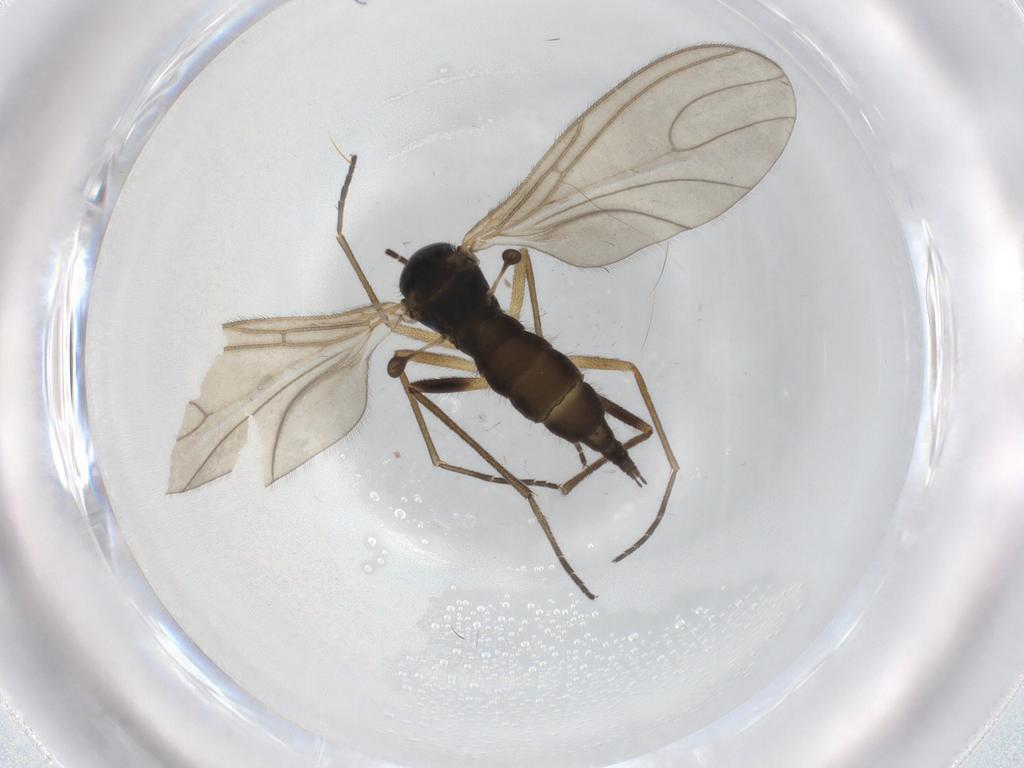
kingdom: Animalia
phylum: Arthropoda
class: Insecta
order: Diptera
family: Sciaridae
